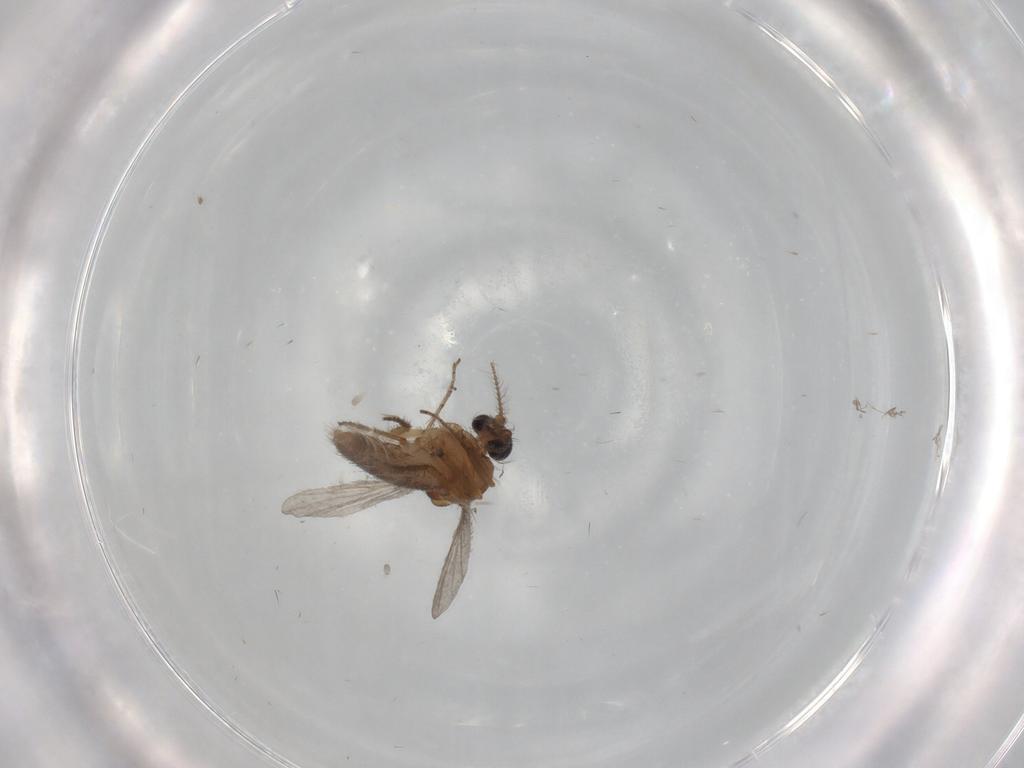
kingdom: Animalia
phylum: Arthropoda
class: Insecta
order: Diptera
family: Ceratopogonidae
